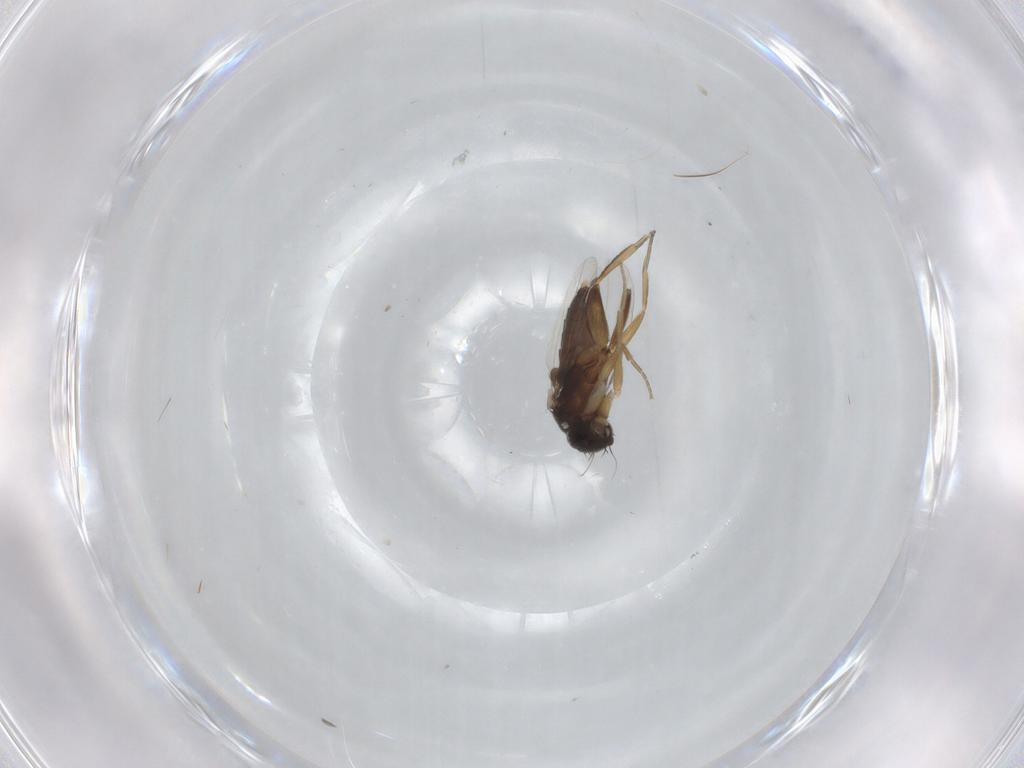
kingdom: Animalia
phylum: Arthropoda
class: Insecta
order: Diptera
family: Phoridae
